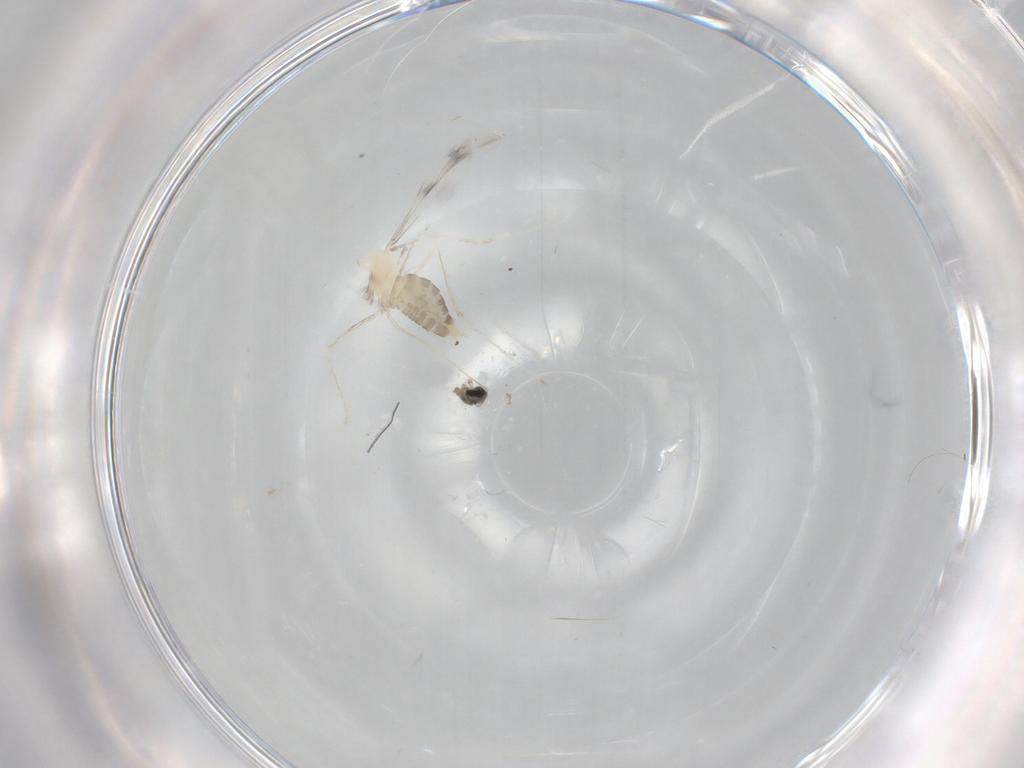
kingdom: Animalia
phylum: Arthropoda
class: Insecta
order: Diptera
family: Cecidomyiidae
